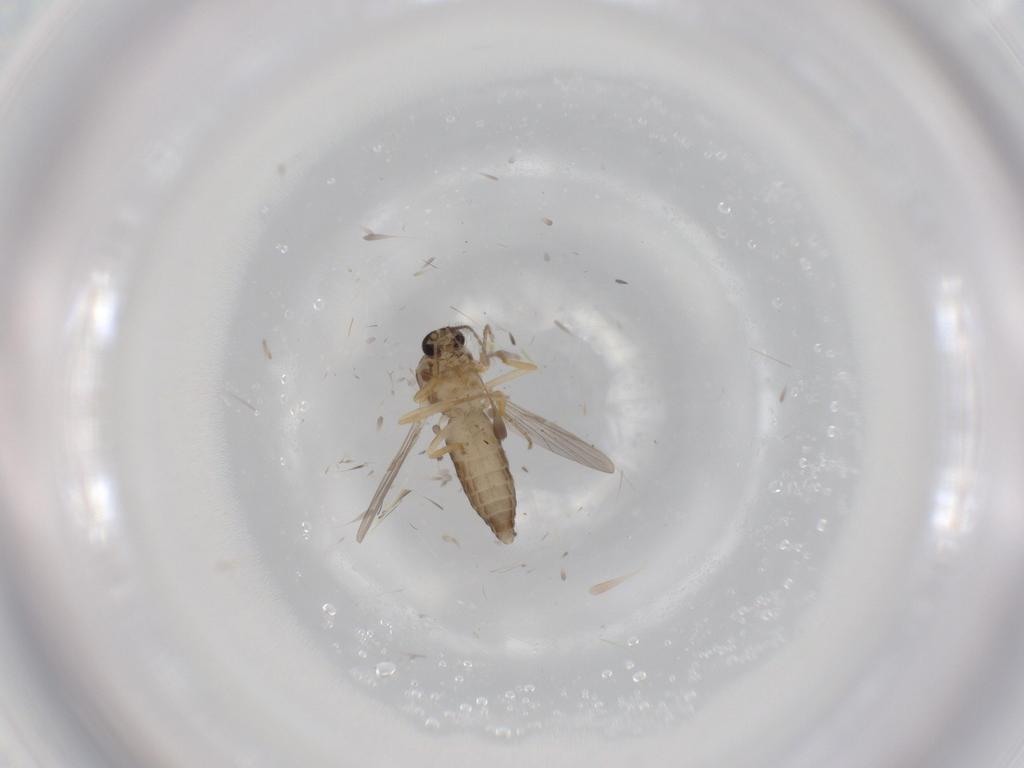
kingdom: Animalia
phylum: Arthropoda
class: Insecta
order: Diptera
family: Ceratopogonidae
